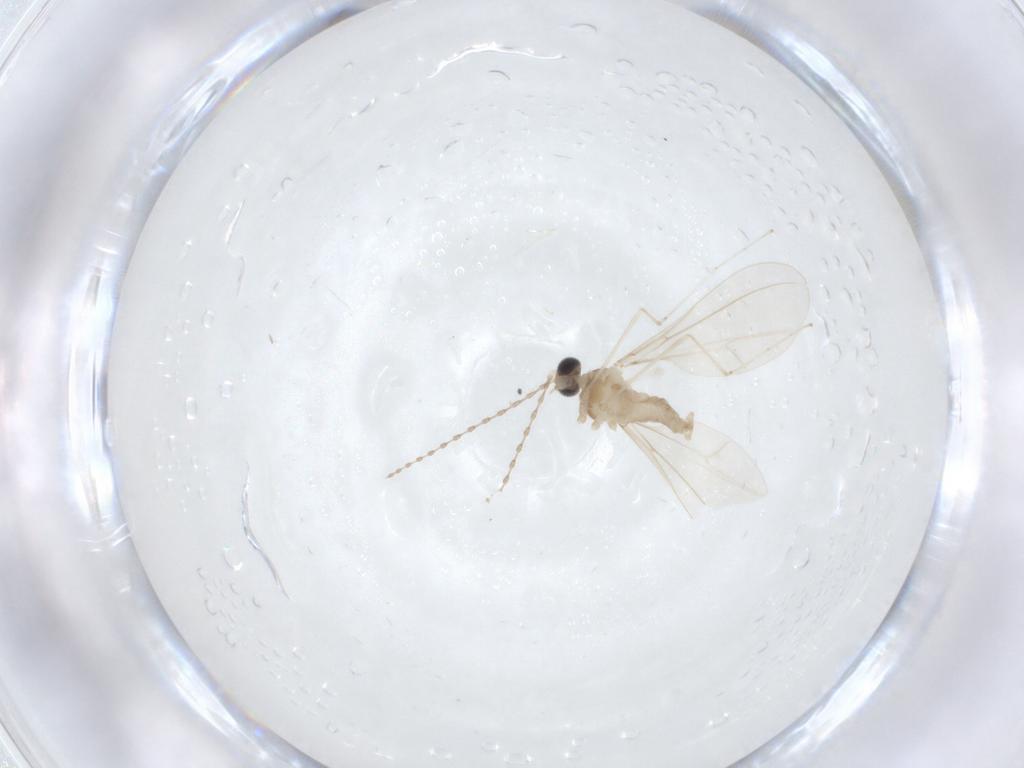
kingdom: Animalia
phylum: Arthropoda
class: Insecta
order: Diptera
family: Cecidomyiidae
